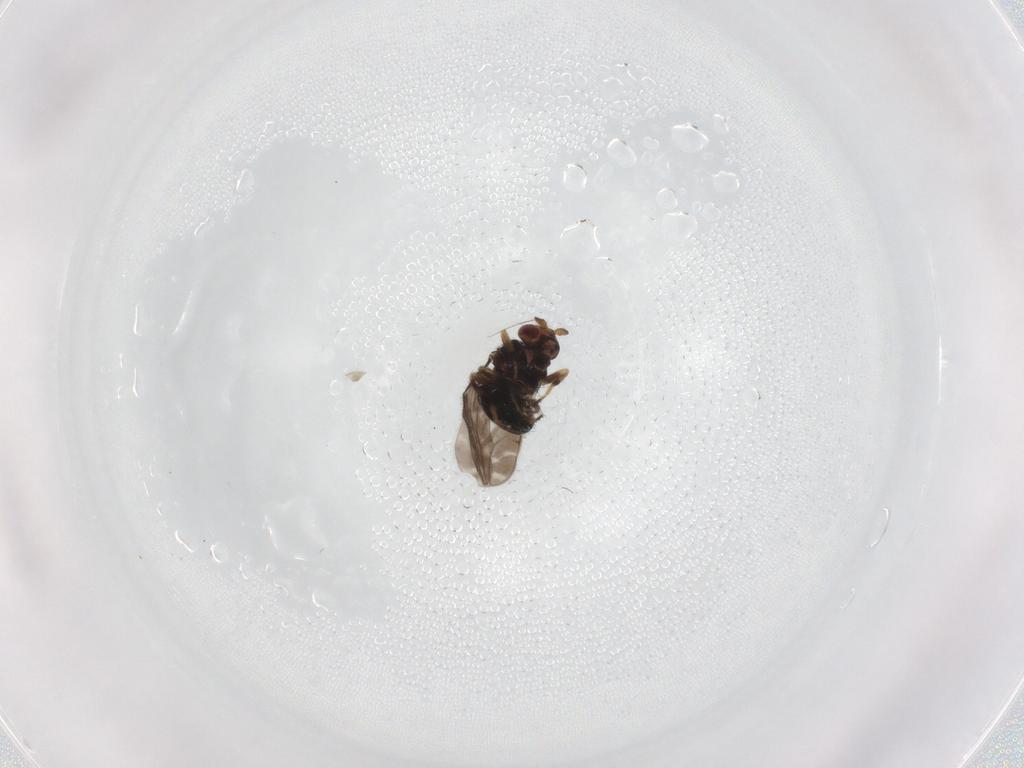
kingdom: Animalia
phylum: Arthropoda
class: Insecta
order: Diptera
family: Sphaeroceridae
